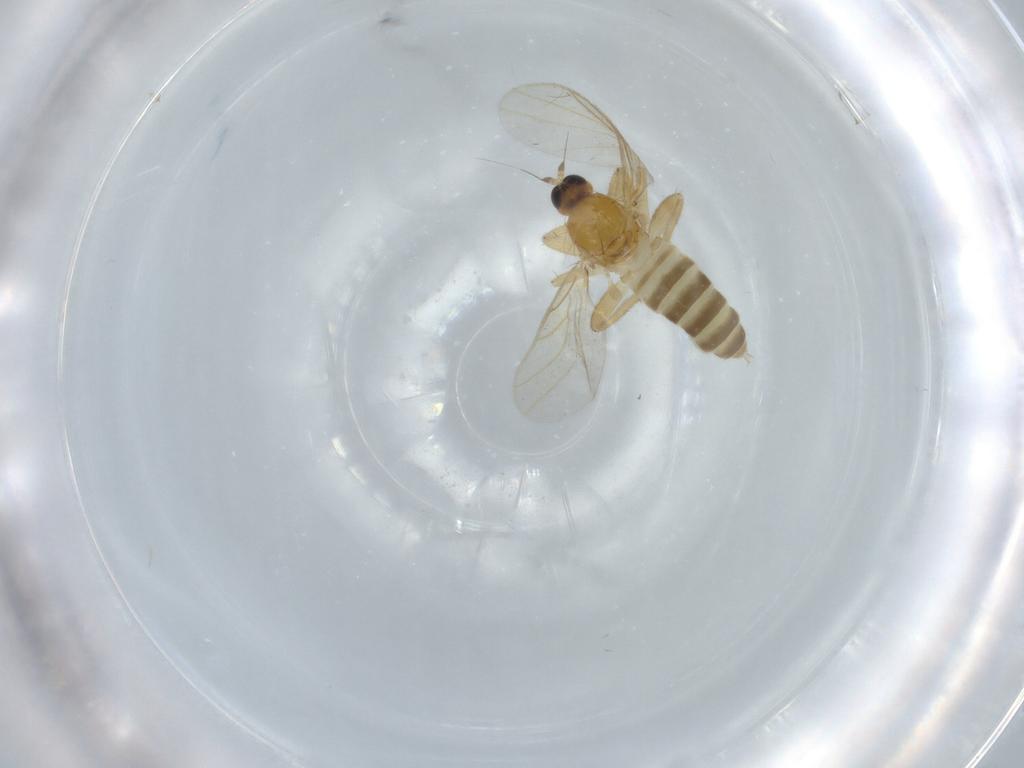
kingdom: Animalia
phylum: Arthropoda
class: Insecta
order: Diptera
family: Hybotidae
